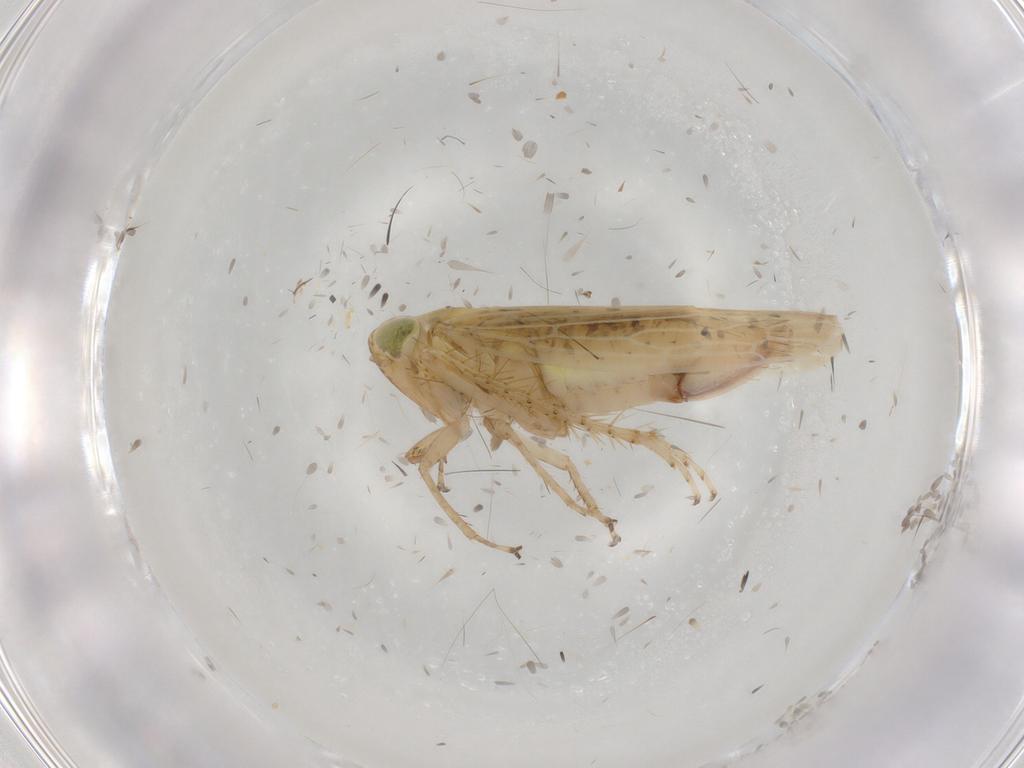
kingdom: Animalia
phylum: Arthropoda
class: Insecta
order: Hemiptera
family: Cicadellidae
